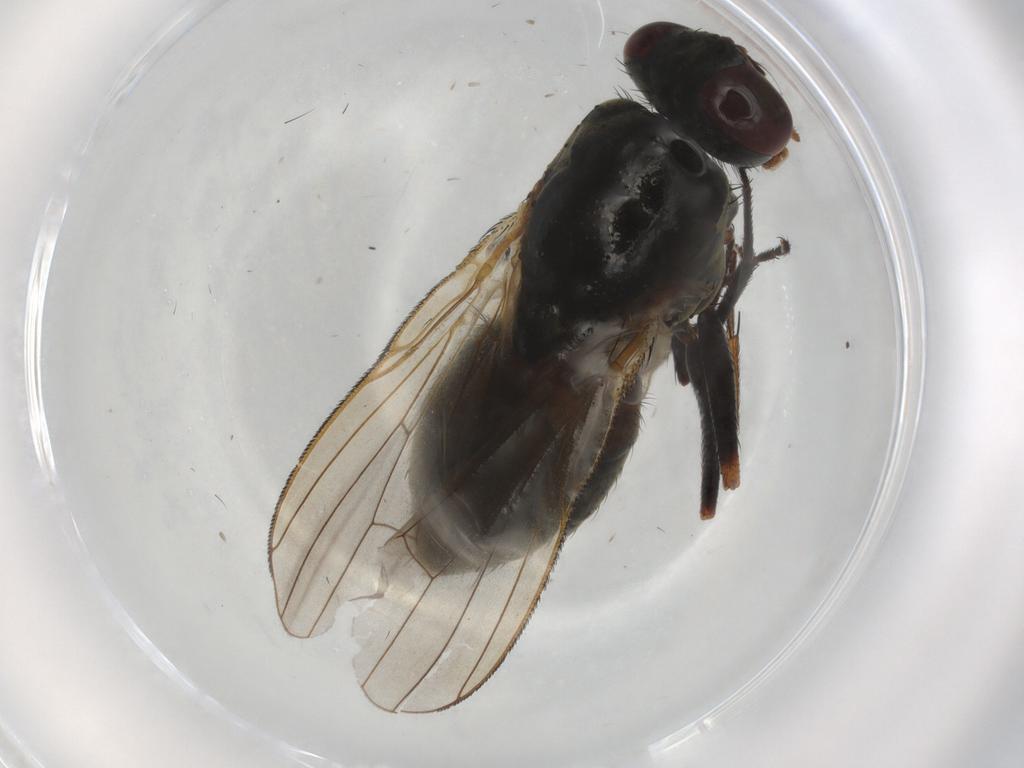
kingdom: Animalia
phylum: Arthropoda
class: Insecta
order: Diptera
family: Muscidae
